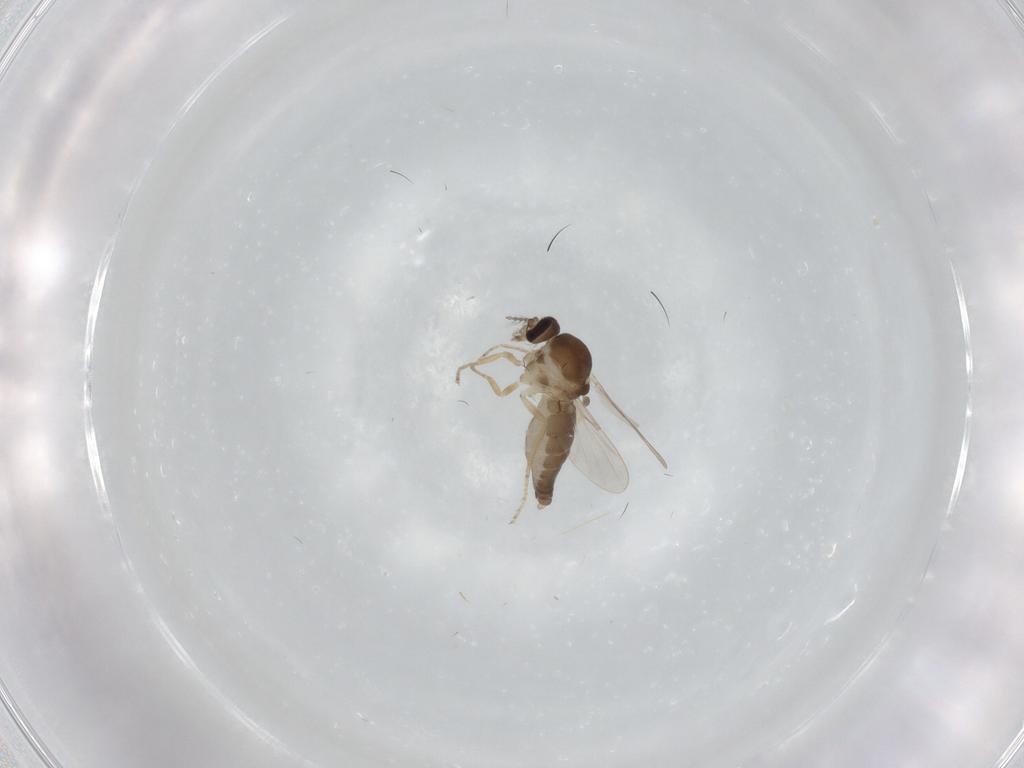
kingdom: Animalia
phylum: Arthropoda
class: Insecta
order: Diptera
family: Ceratopogonidae
